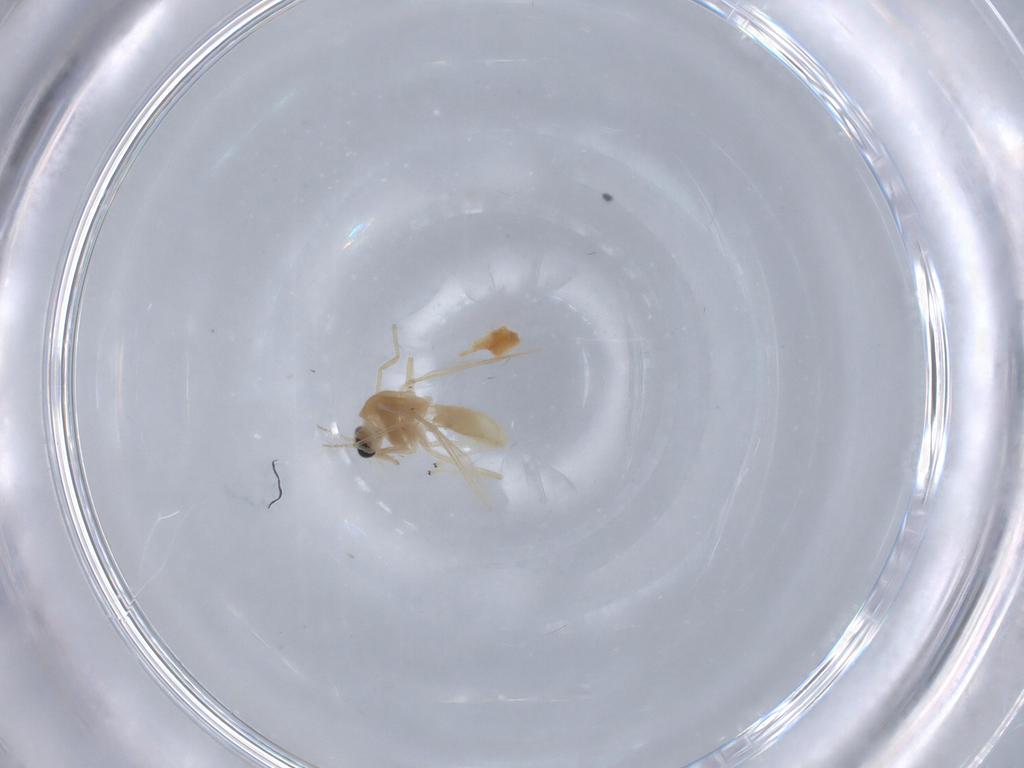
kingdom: Animalia
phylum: Arthropoda
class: Insecta
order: Diptera
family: Chironomidae
